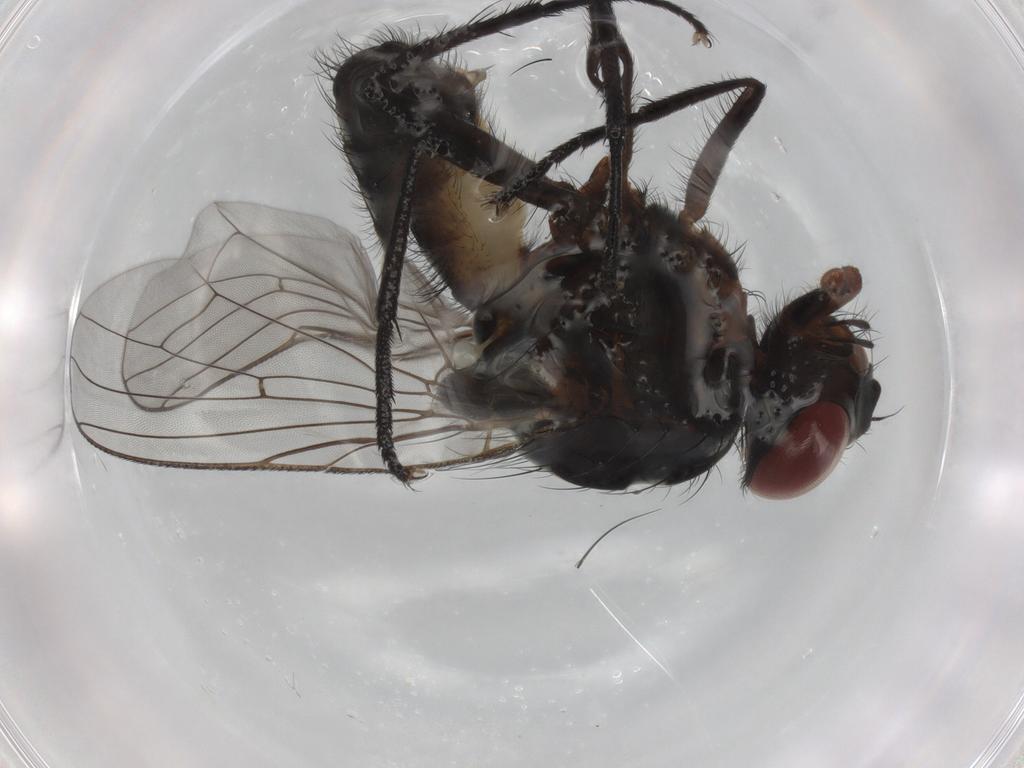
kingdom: Animalia
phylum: Arthropoda
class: Insecta
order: Diptera
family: Anthomyiidae
